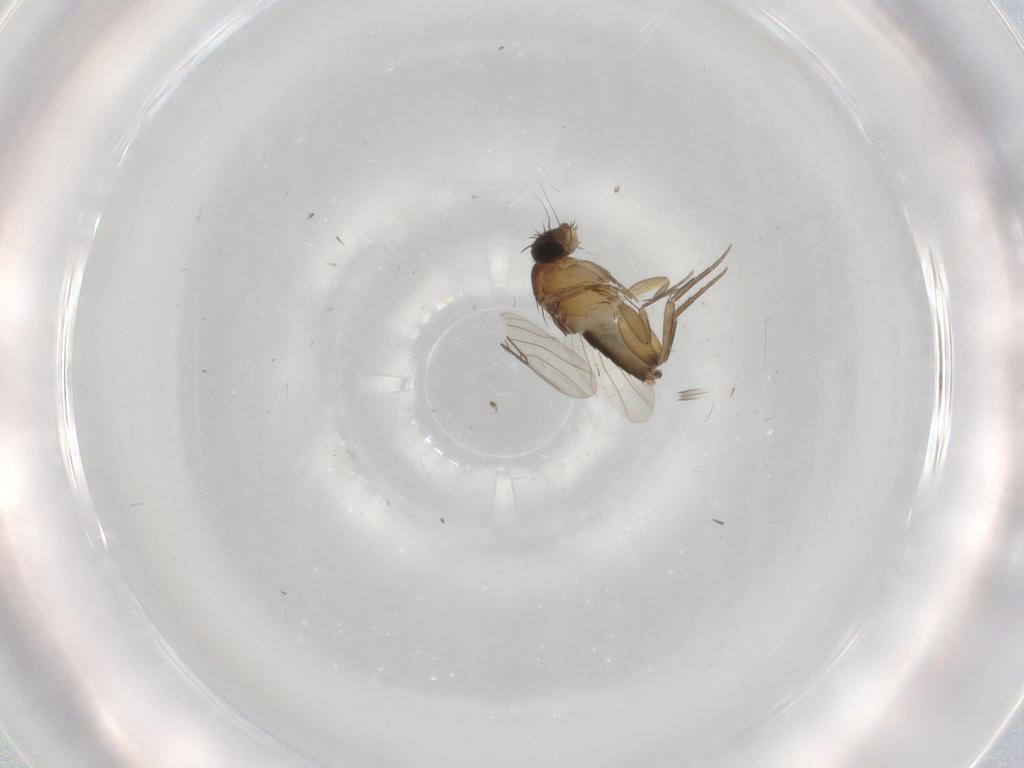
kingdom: Animalia
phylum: Arthropoda
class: Insecta
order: Diptera
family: Phoridae
